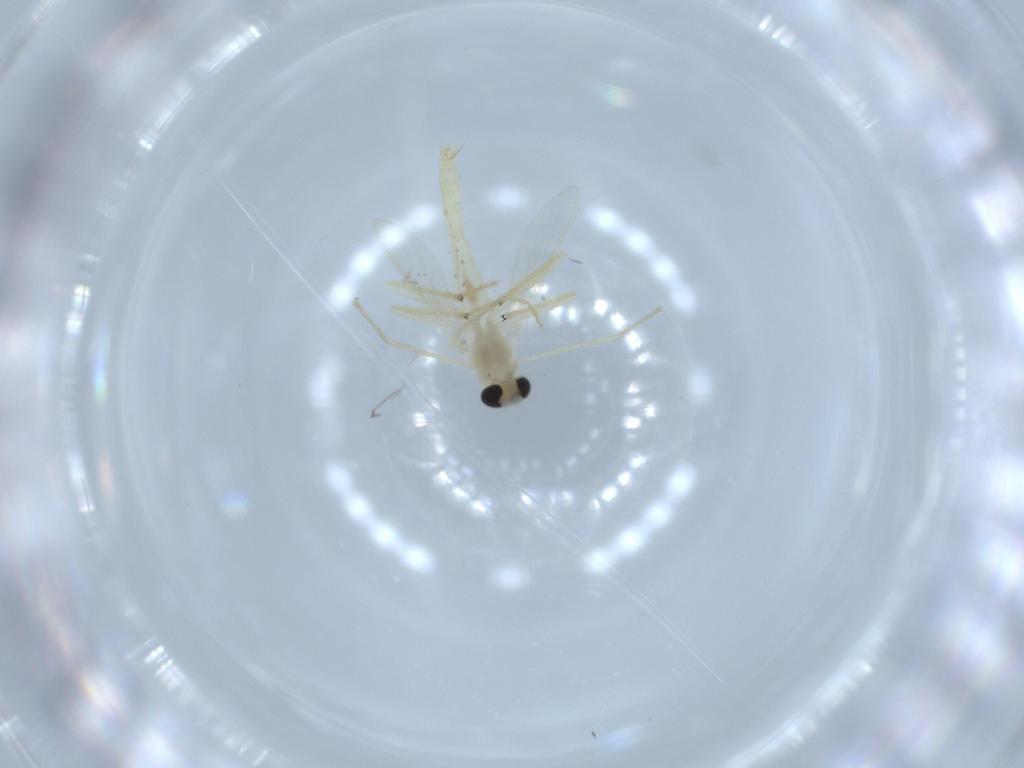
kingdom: Animalia
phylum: Arthropoda
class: Insecta
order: Diptera
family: Chironomidae
